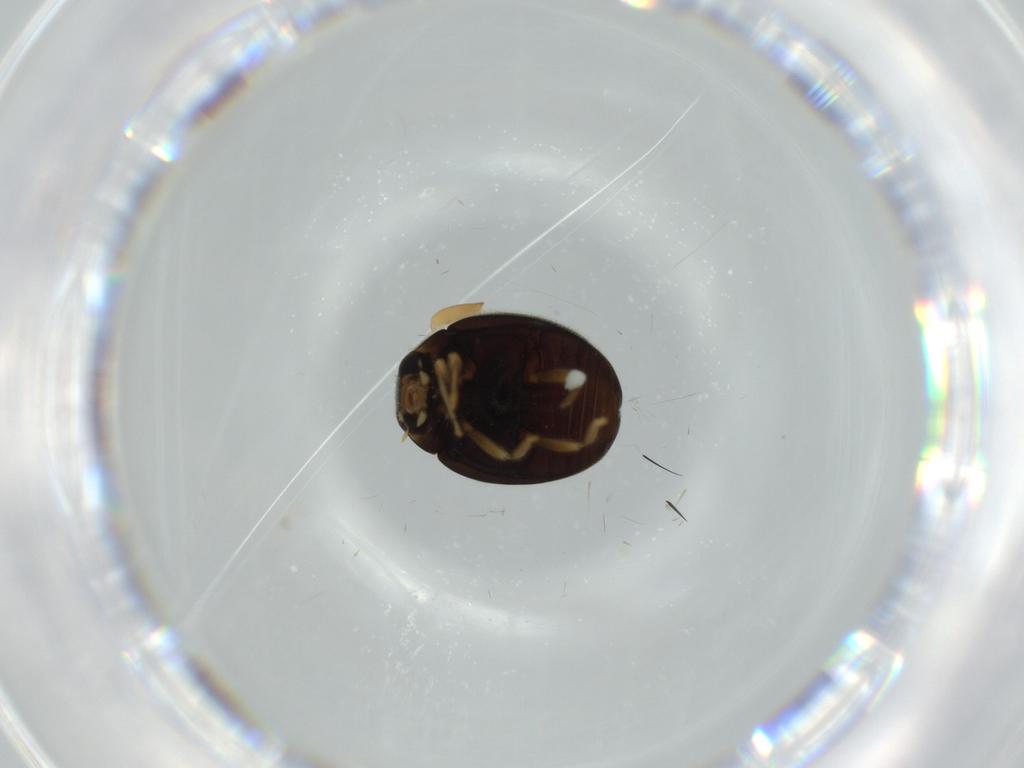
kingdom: Animalia
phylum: Arthropoda
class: Insecta
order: Coleoptera
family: Coccinellidae
